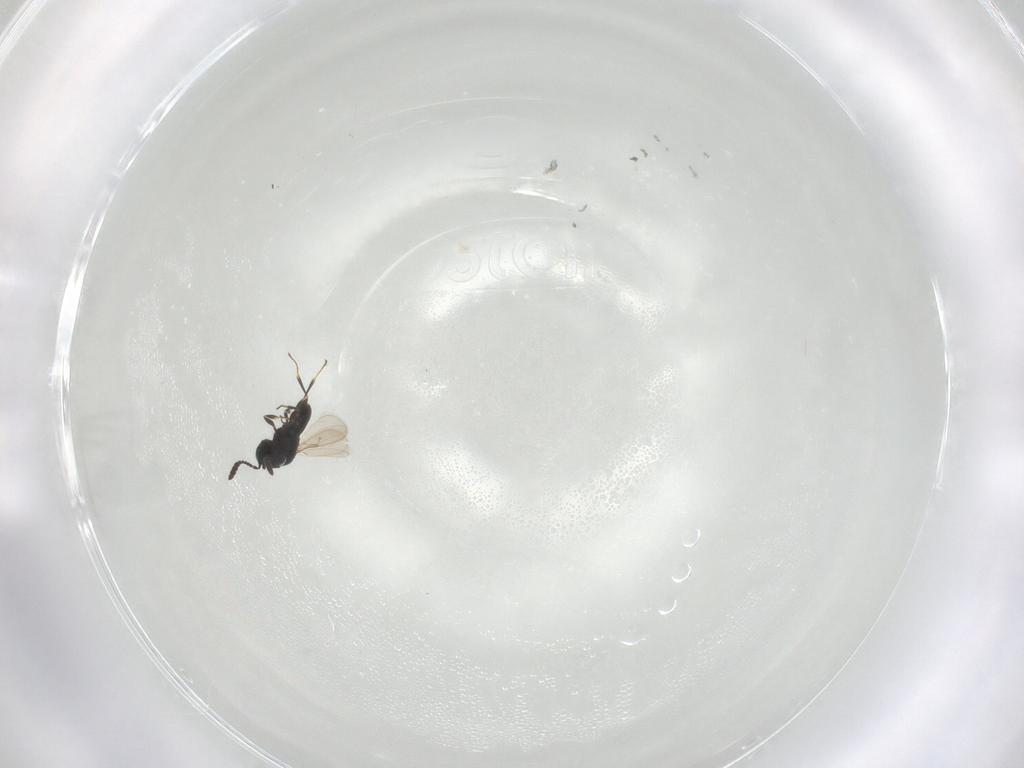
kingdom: Animalia
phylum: Arthropoda
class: Insecta
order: Hymenoptera
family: Scelionidae
